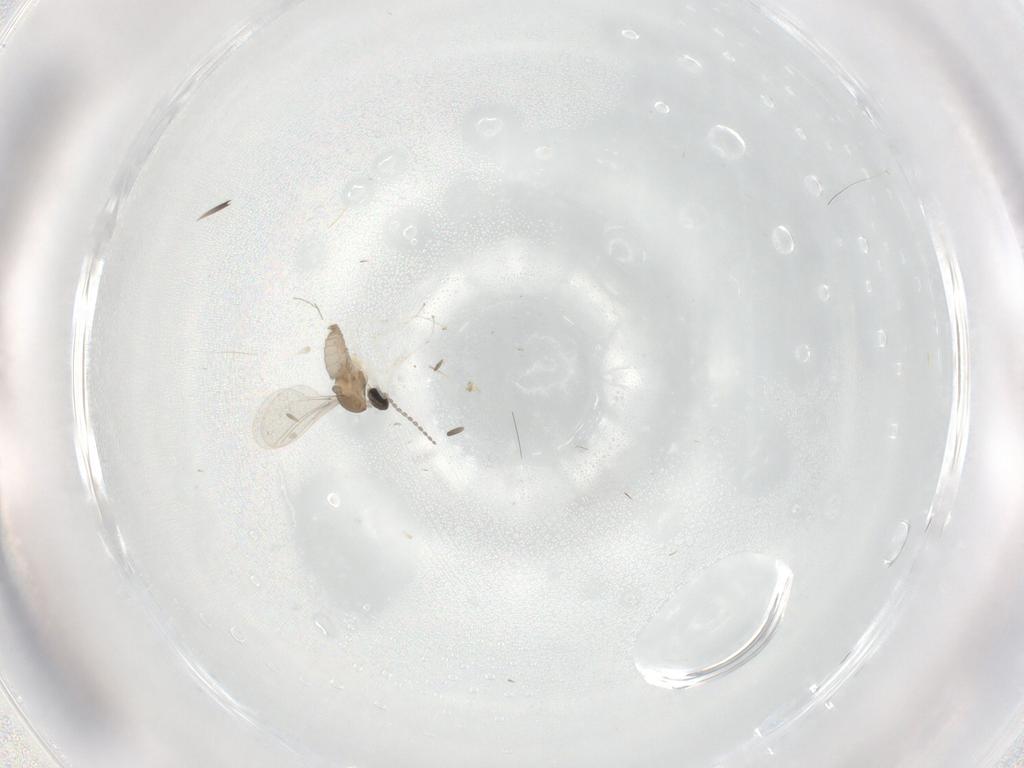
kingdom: Animalia
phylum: Arthropoda
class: Insecta
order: Diptera
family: Cecidomyiidae
